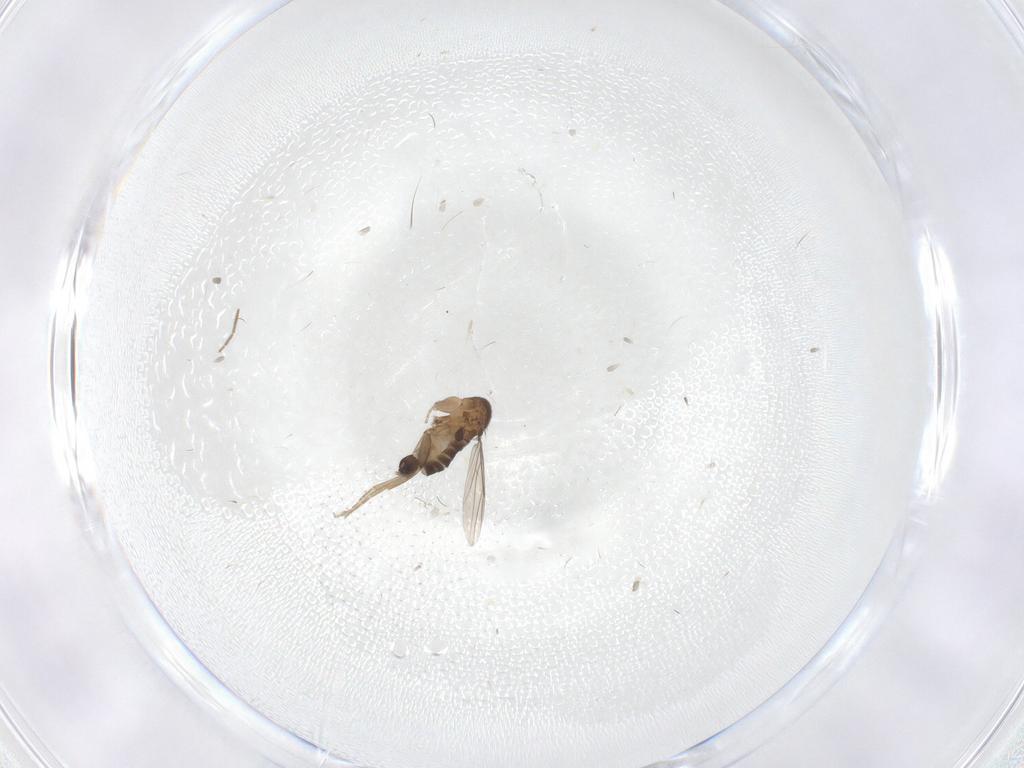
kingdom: Animalia
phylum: Arthropoda
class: Insecta
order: Diptera
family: Phoridae
